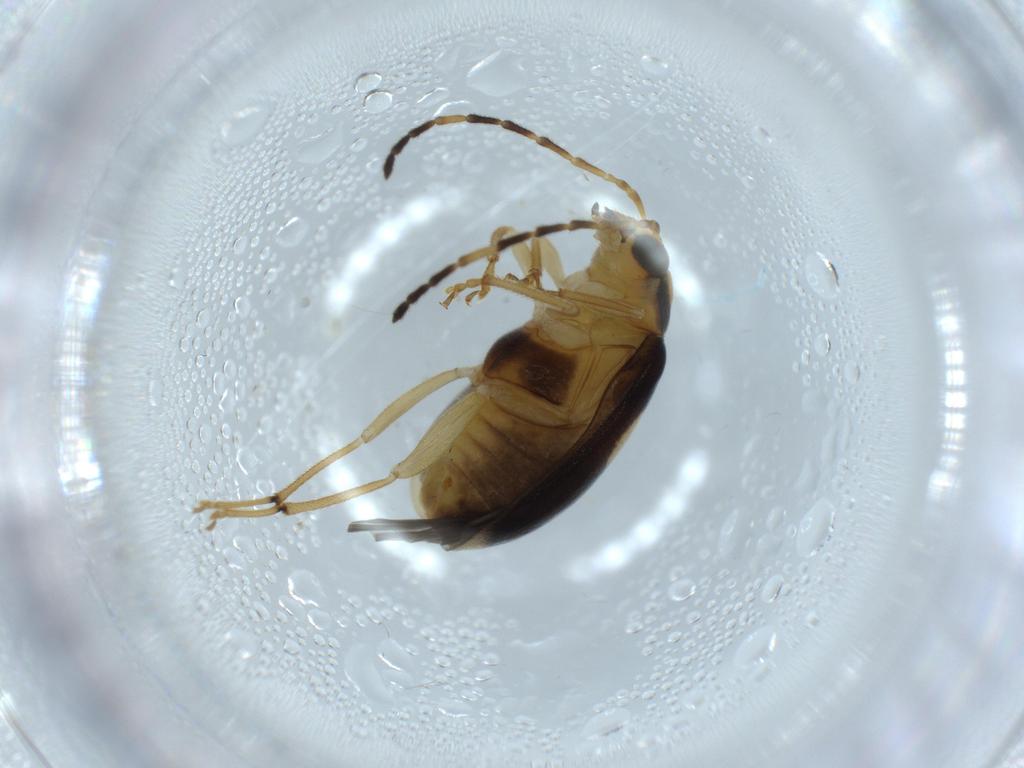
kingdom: Animalia
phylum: Arthropoda
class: Insecta
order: Coleoptera
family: Chrysomelidae
